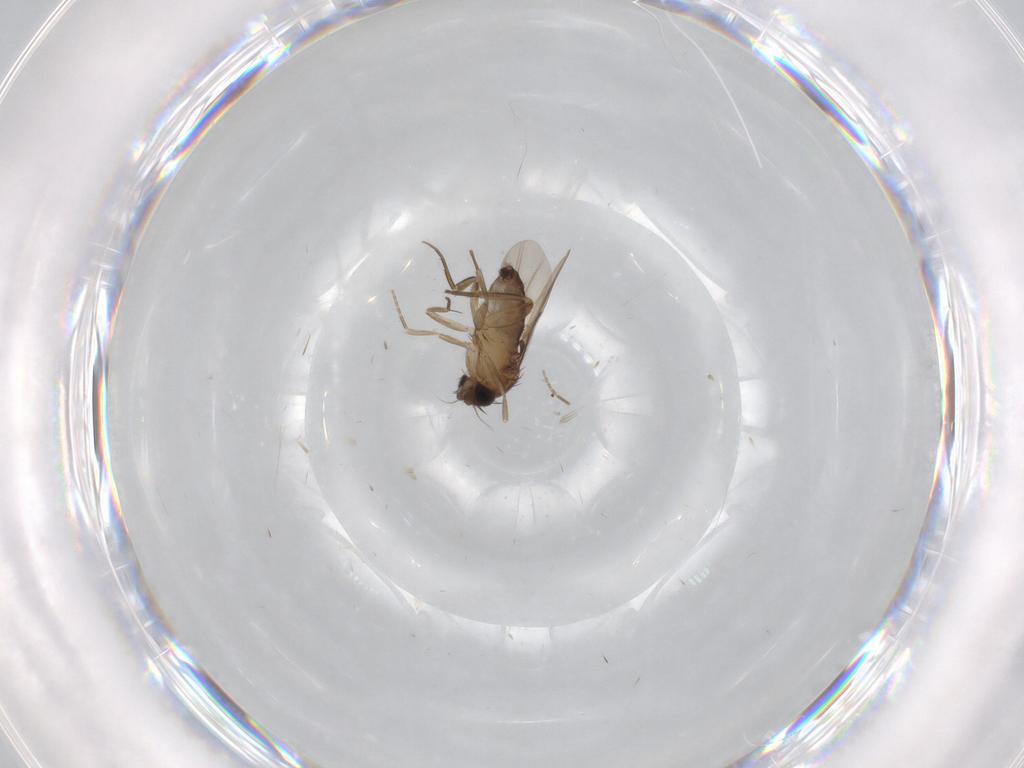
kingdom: Animalia
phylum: Arthropoda
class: Insecta
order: Diptera
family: Phoridae
